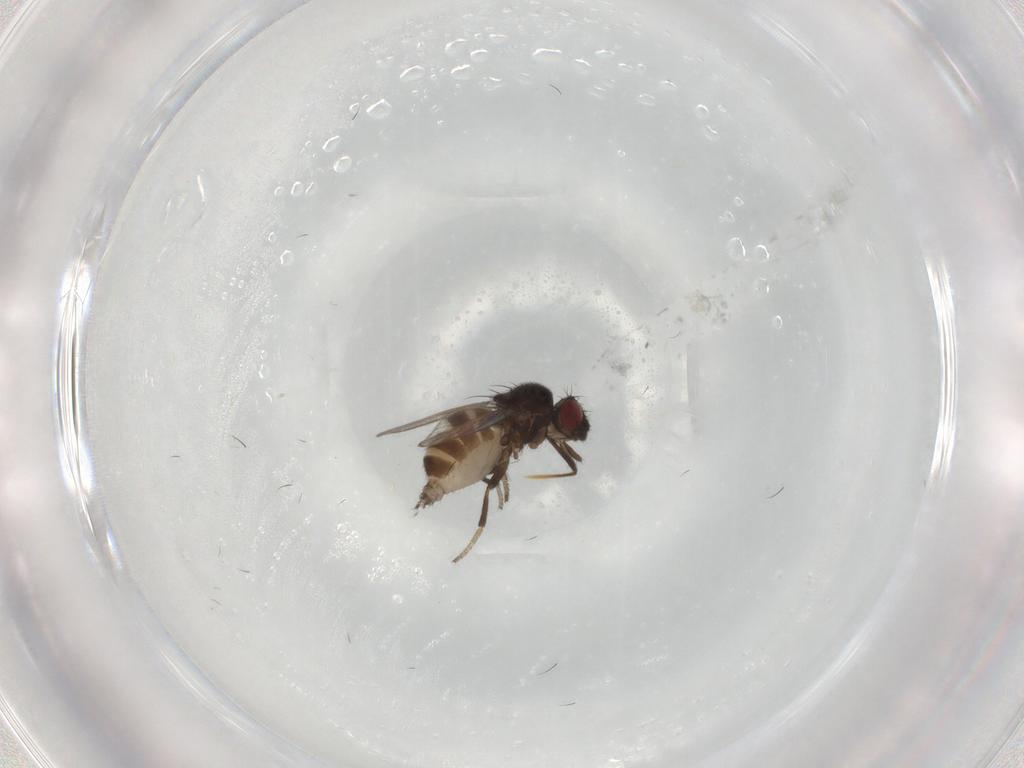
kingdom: Animalia
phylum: Arthropoda
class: Insecta
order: Diptera
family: Milichiidae
